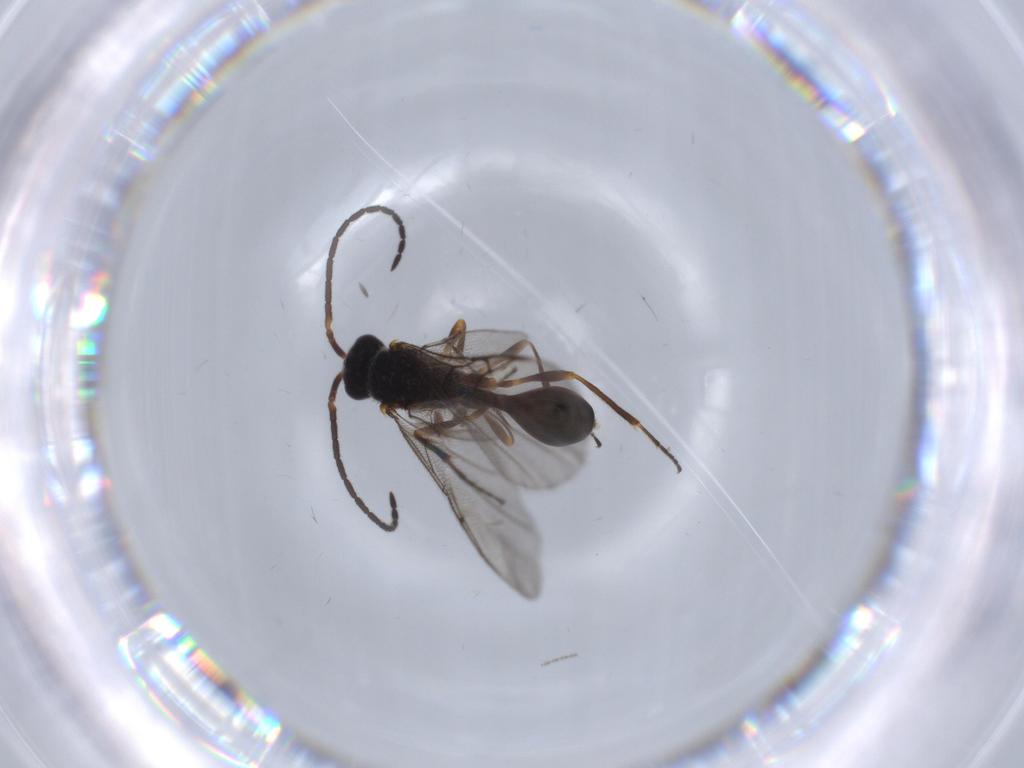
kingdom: Animalia
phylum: Arthropoda
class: Insecta
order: Hymenoptera
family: Diapriidae
